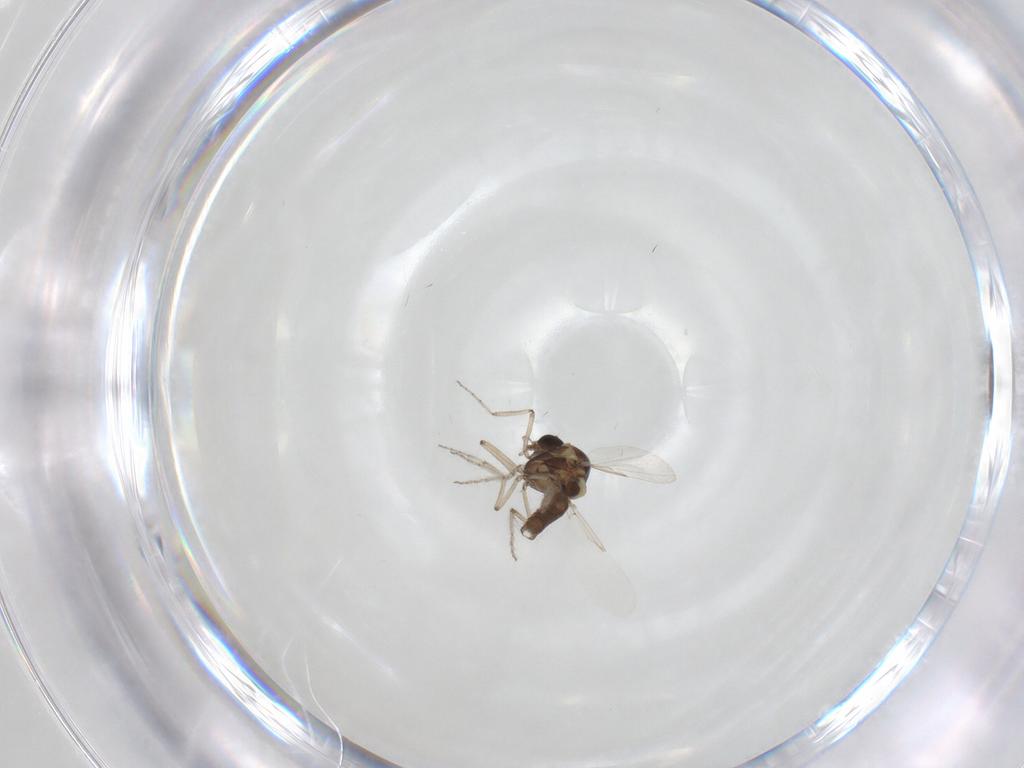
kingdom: Animalia
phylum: Arthropoda
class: Insecta
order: Diptera
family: Ceratopogonidae
